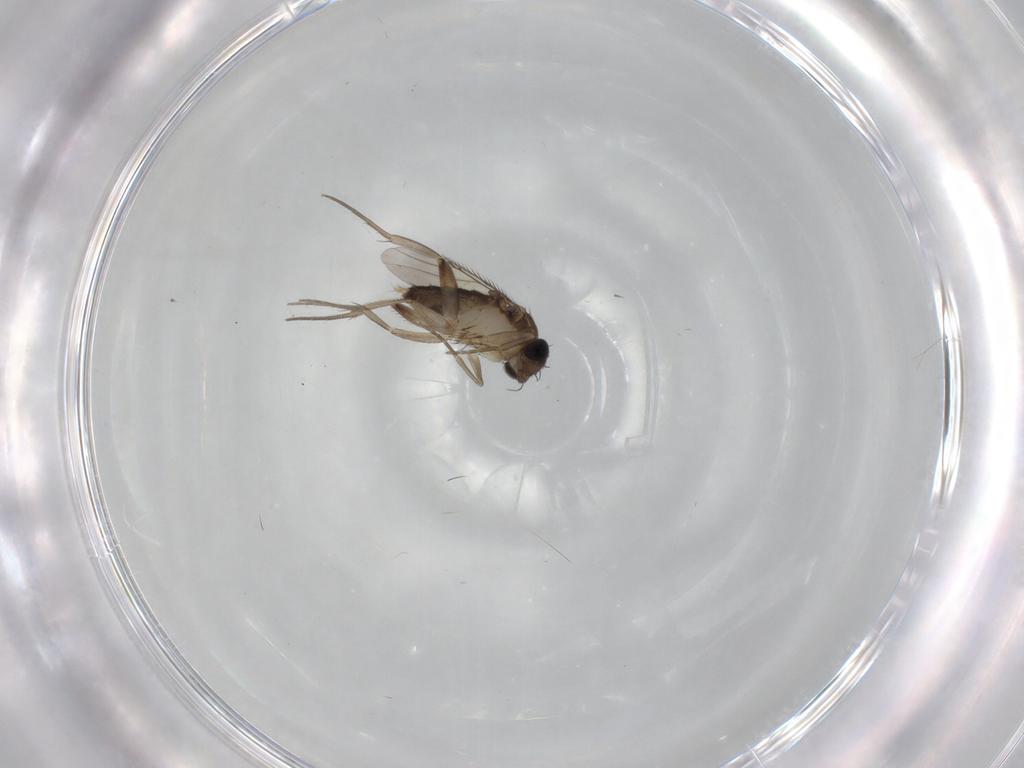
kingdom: Animalia
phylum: Arthropoda
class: Insecta
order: Diptera
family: Phoridae
